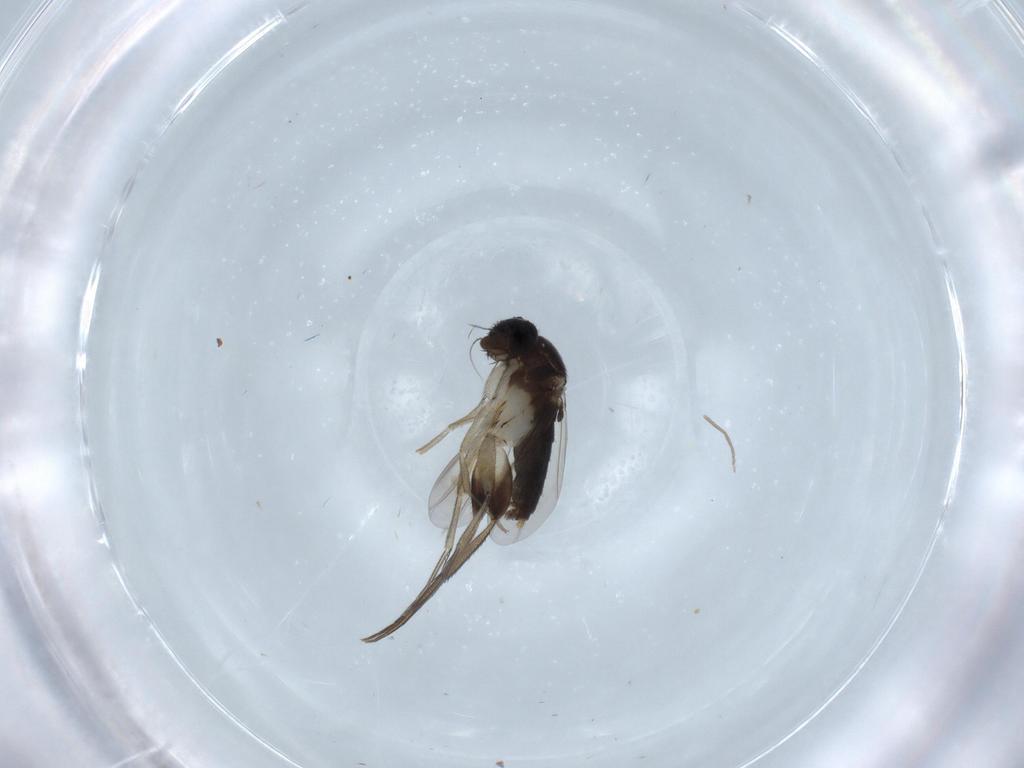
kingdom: Animalia
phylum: Arthropoda
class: Insecta
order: Diptera
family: Phoridae
